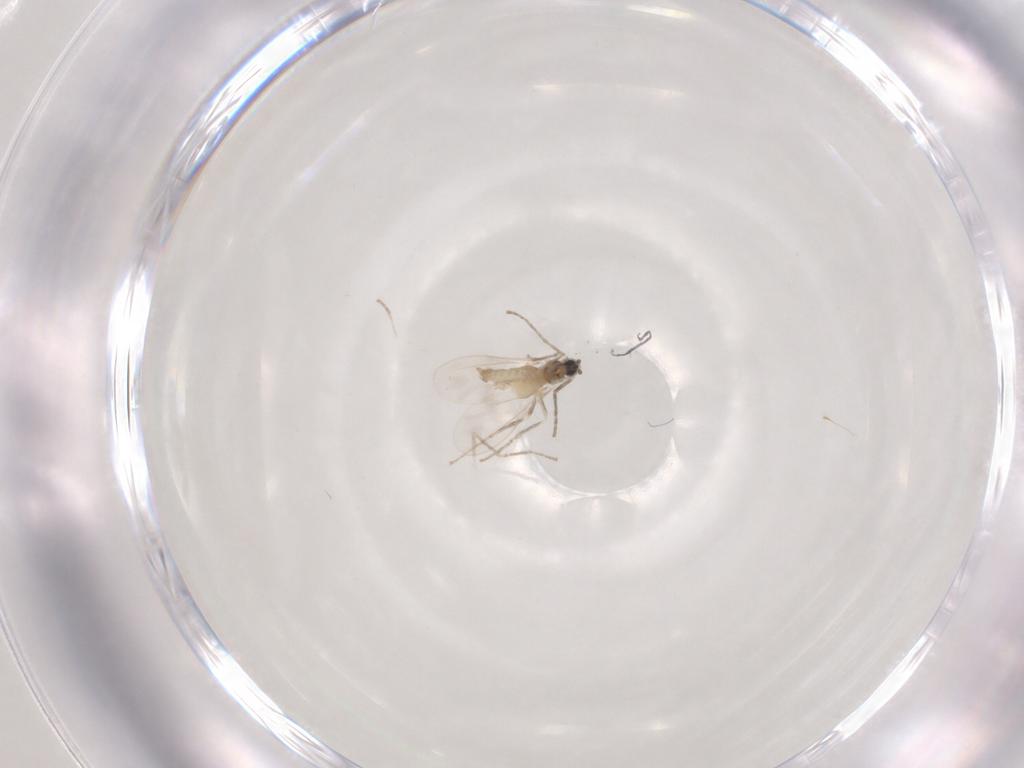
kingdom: Animalia
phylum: Arthropoda
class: Insecta
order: Diptera
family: Cecidomyiidae
